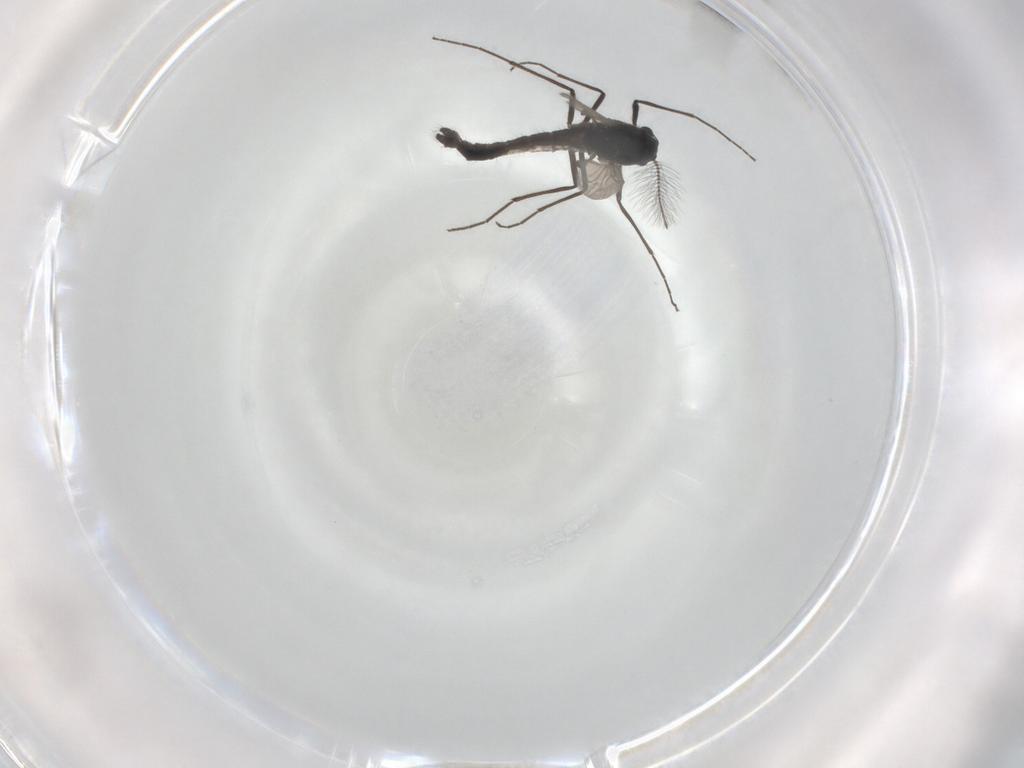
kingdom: Animalia
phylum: Arthropoda
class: Insecta
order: Diptera
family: Chironomidae
